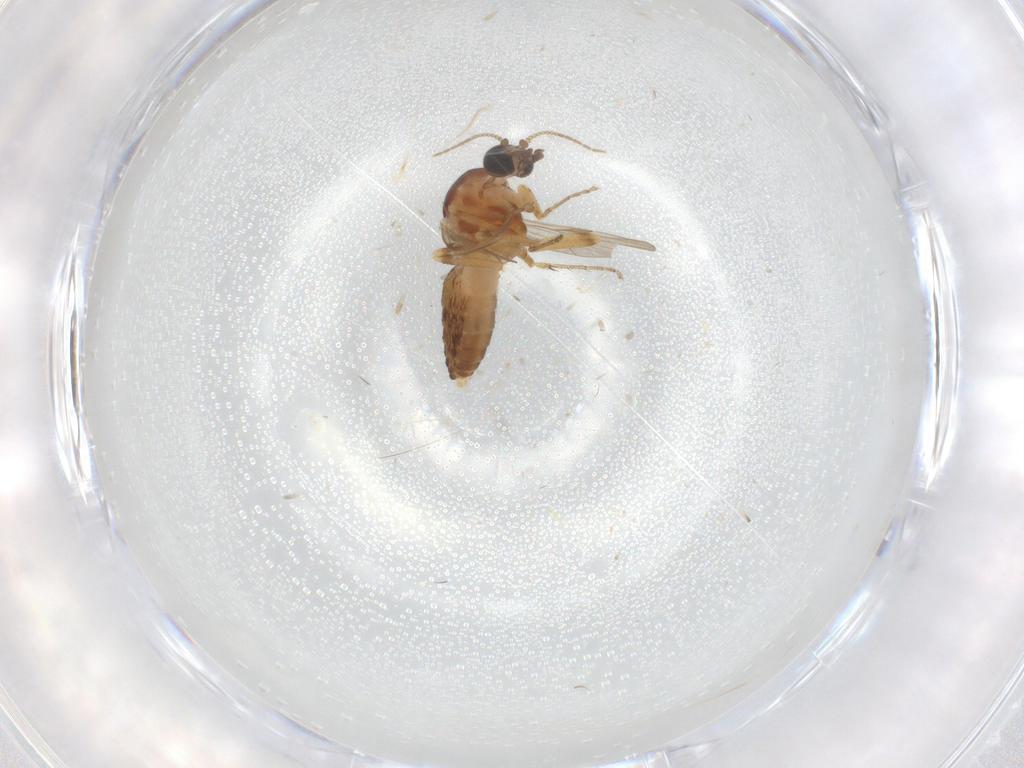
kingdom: Animalia
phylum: Arthropoda
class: Insecta
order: Diptera
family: Ceratopogonidae
